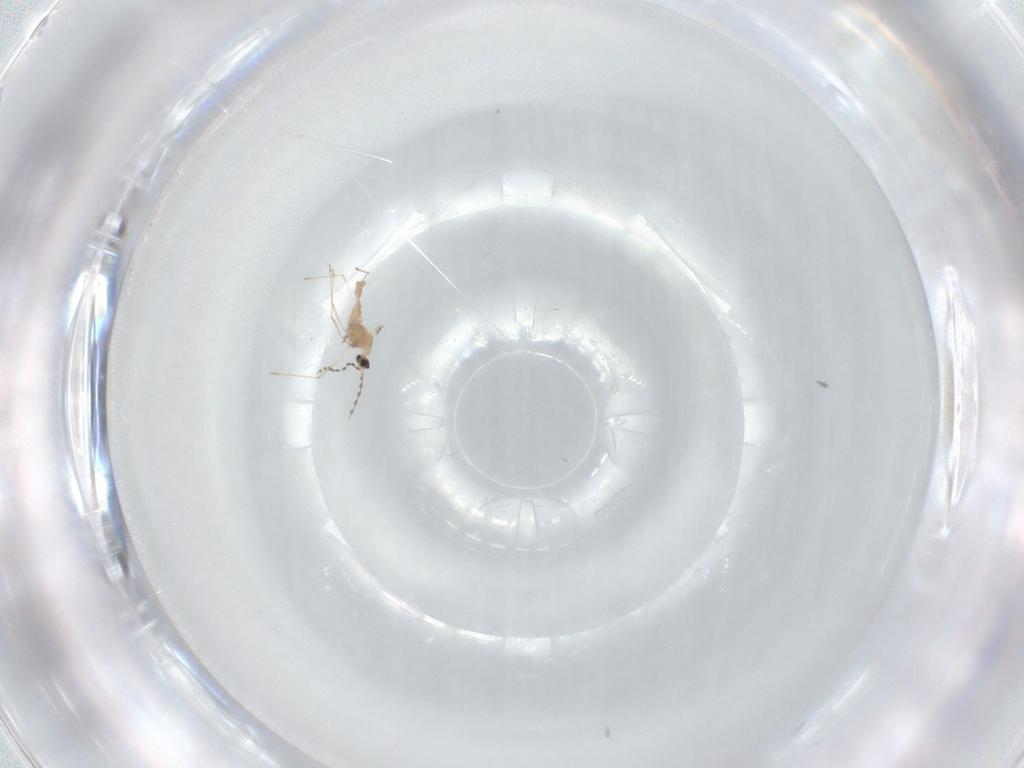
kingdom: Animalia
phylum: Arthropoda
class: Insecta
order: Diptera
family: Cecidomyiidae
